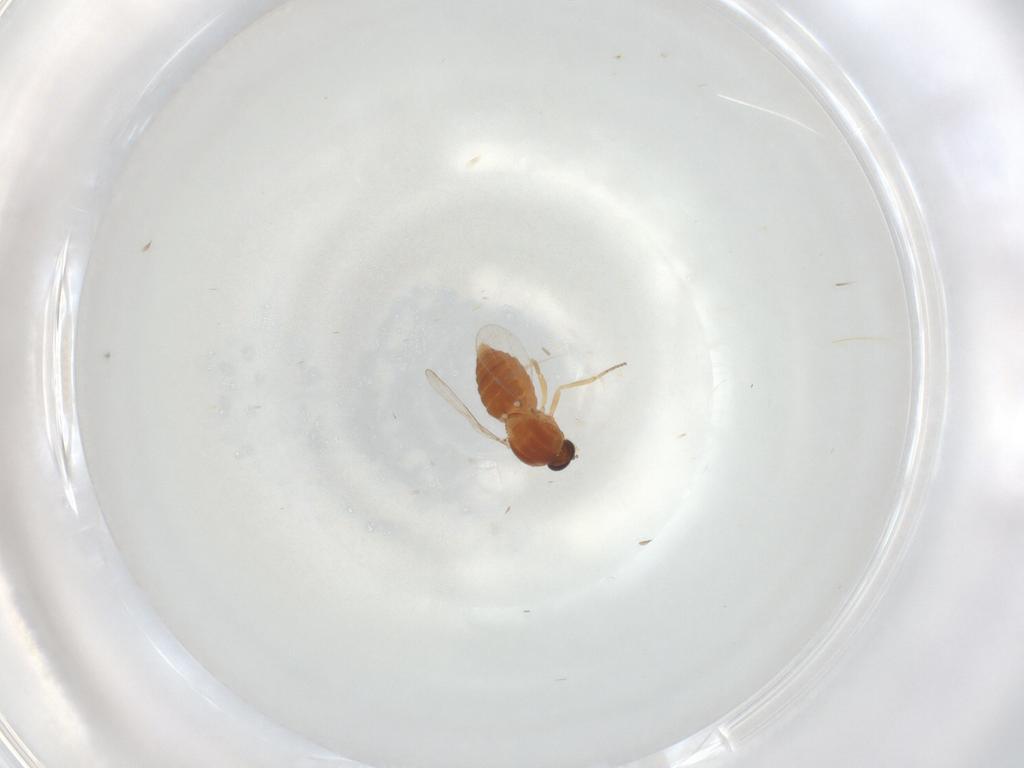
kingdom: Animalia
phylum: Arthropoda
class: Insecta
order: Diptera
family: Ceratopogonidae
